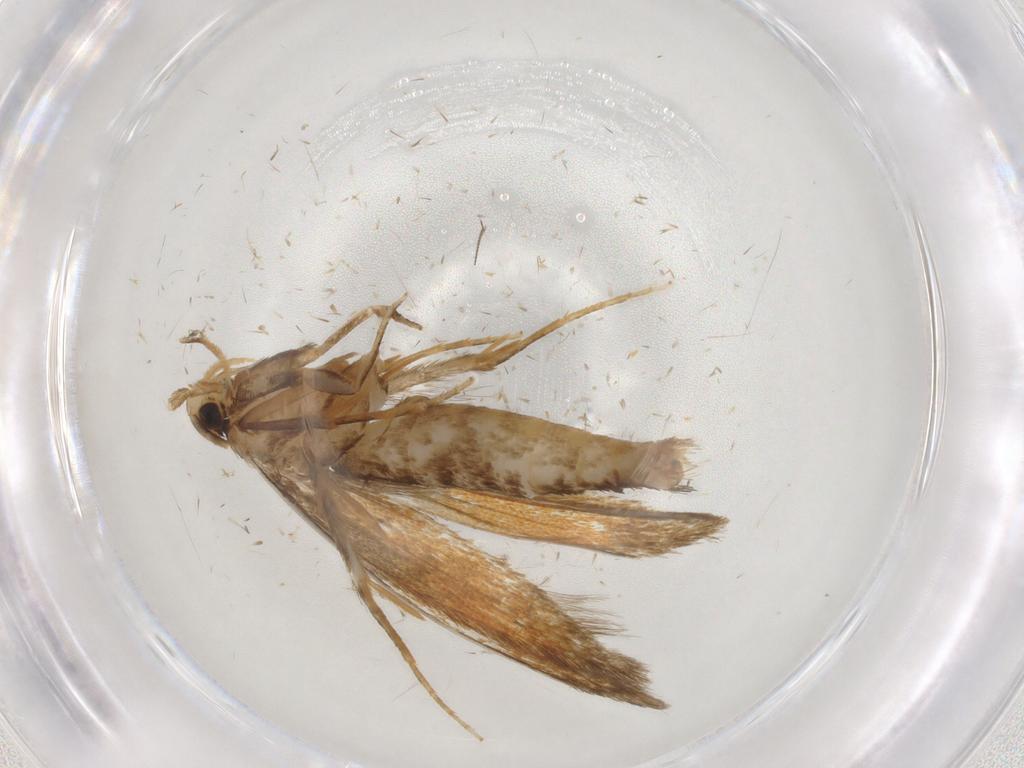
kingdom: Animalia
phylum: Arthropoda
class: Insecta
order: Lepidoptera
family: Tineidae
